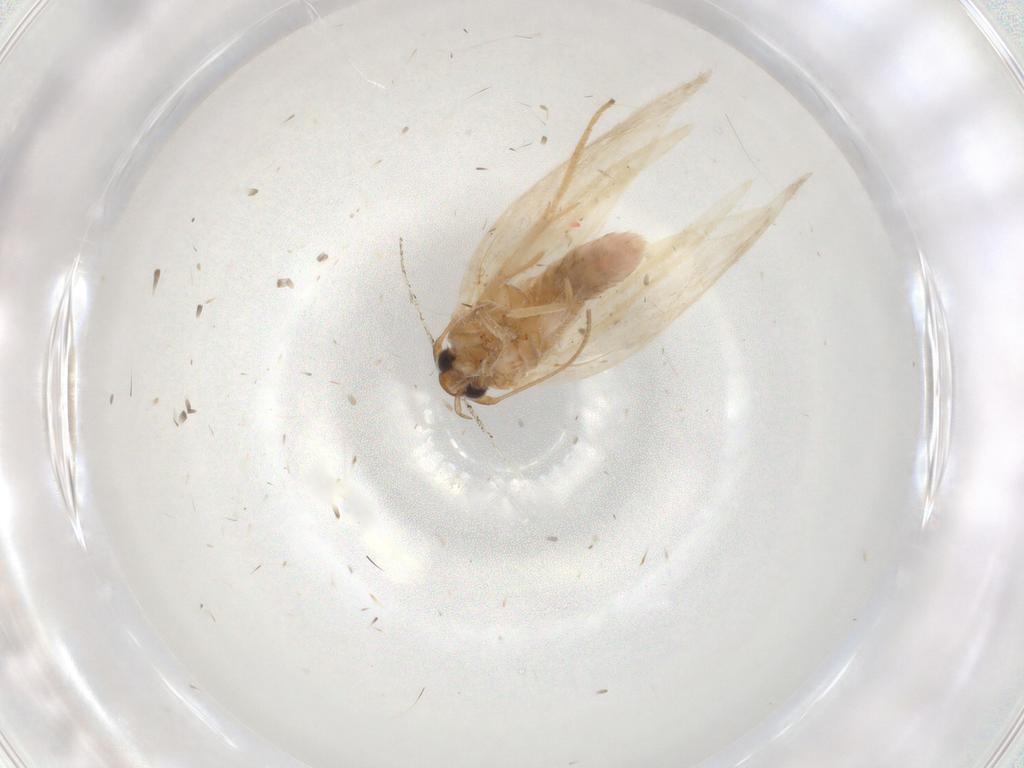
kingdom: Animalia
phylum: Arthropoda
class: Insecta
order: Lepidoptera
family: Gelechiidae
